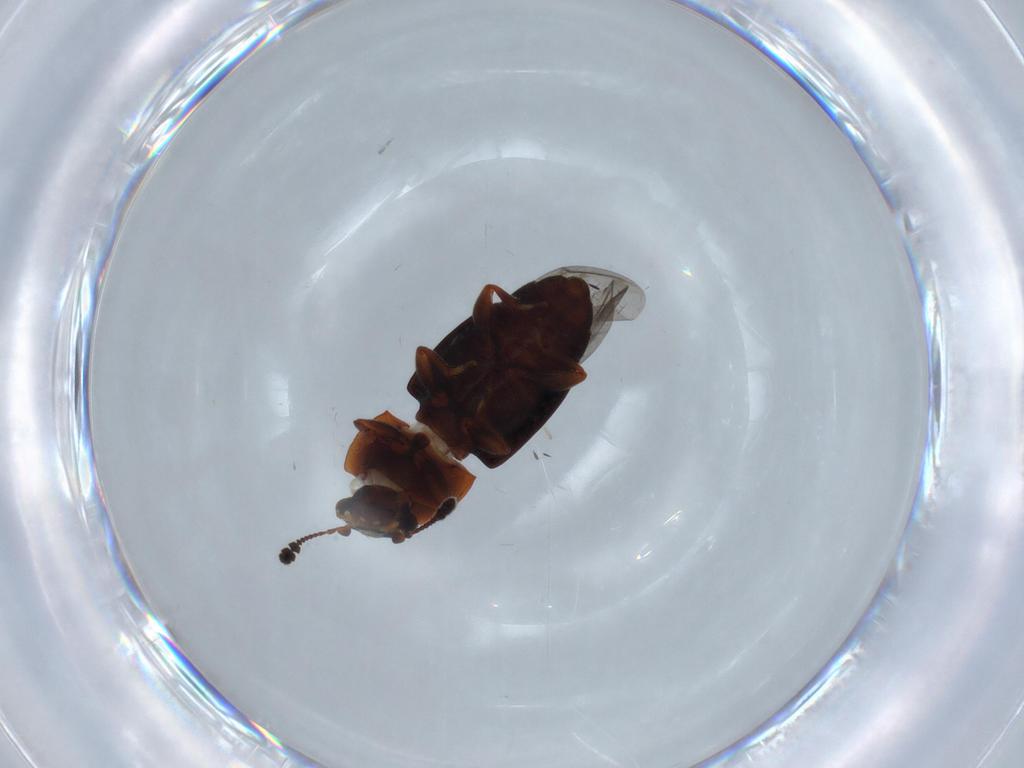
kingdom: Animalia
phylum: Arthropoda
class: Insecta
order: Coleoptera
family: Nitidulidae
